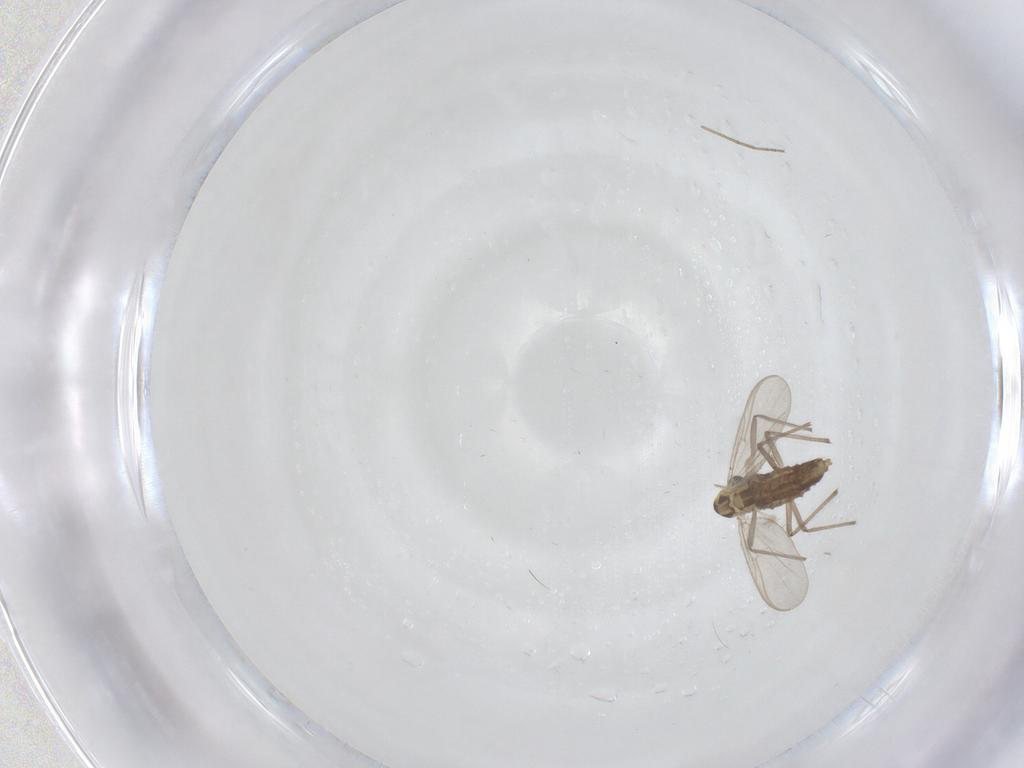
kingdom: Animalia
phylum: Arthropoda
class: Insecta
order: Diptera
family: Chironomidae
